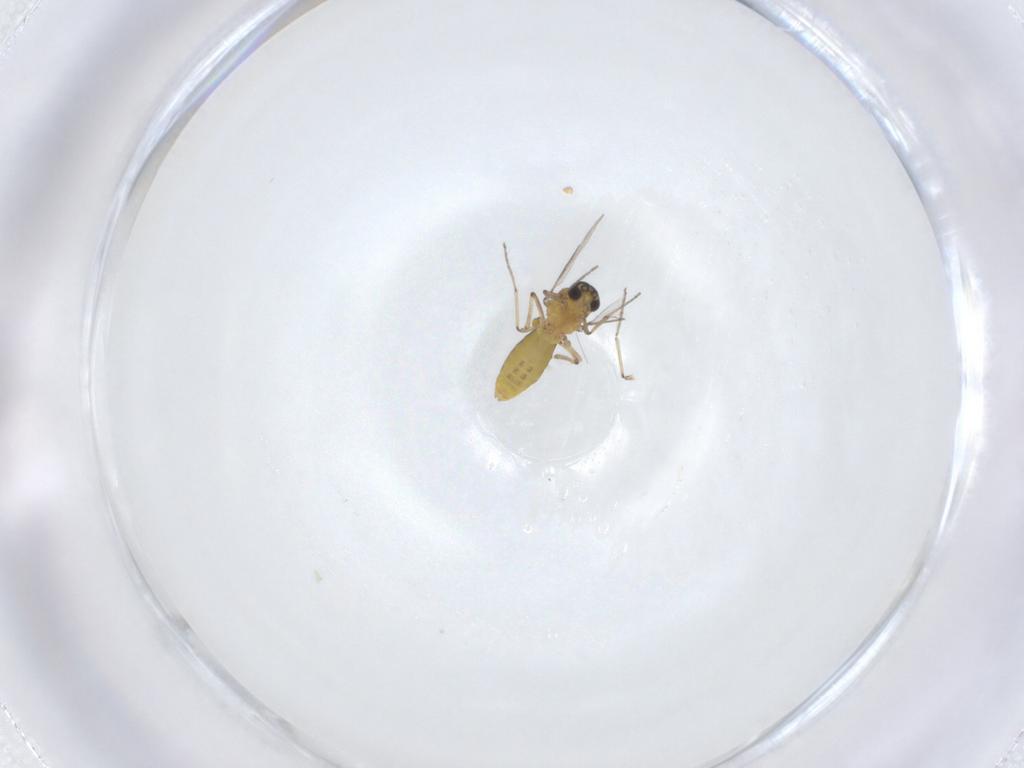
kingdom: Animalia
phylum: Arthropoda
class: Insecta
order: Diptera
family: Ceratopogonidae
